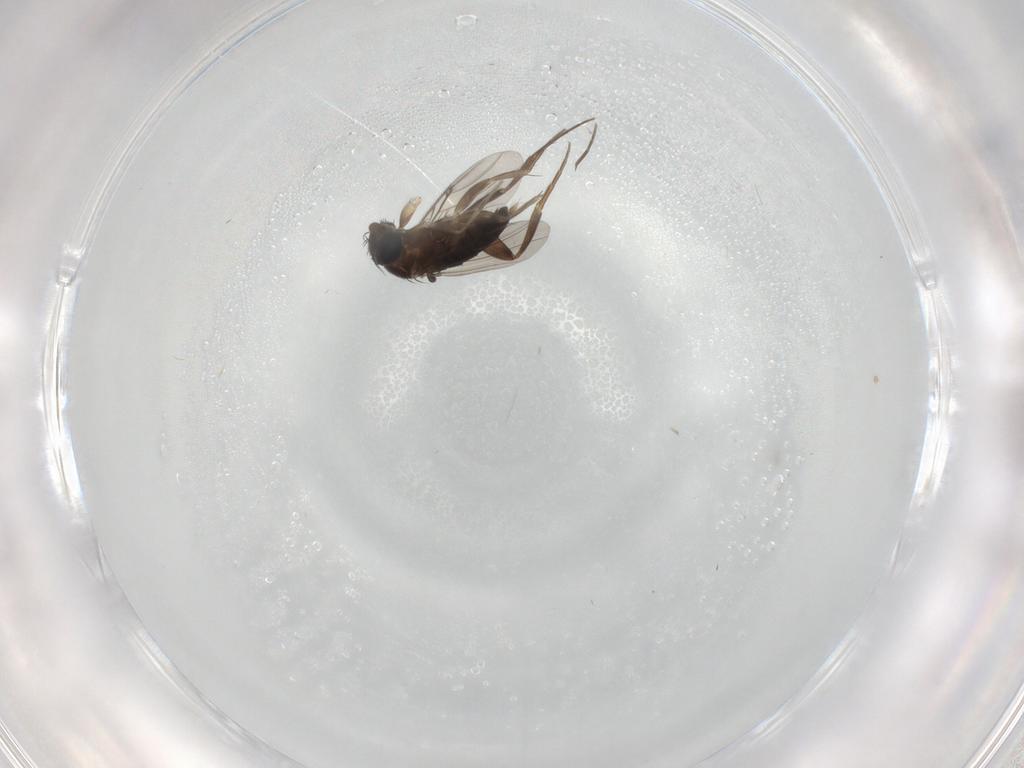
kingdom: Animalia
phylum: Arthropoda
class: Insecta
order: Diptera
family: Phoridae
